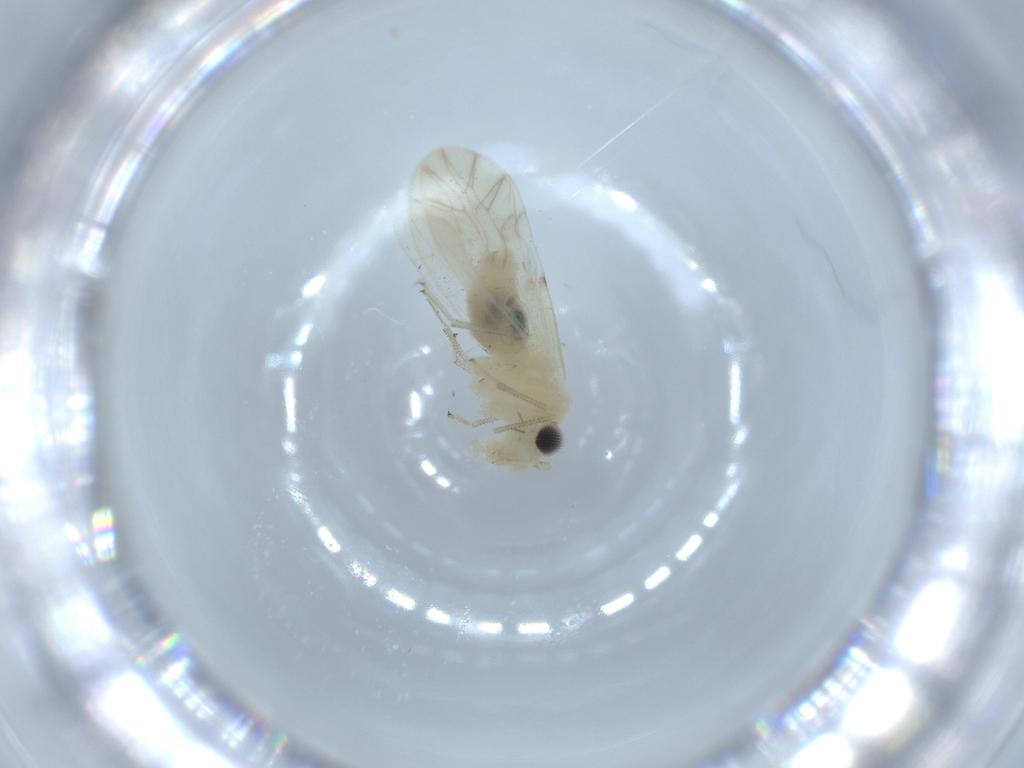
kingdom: Animalia
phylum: Arthropoda
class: Insecta
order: Psocodea
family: Caeciliusidae
